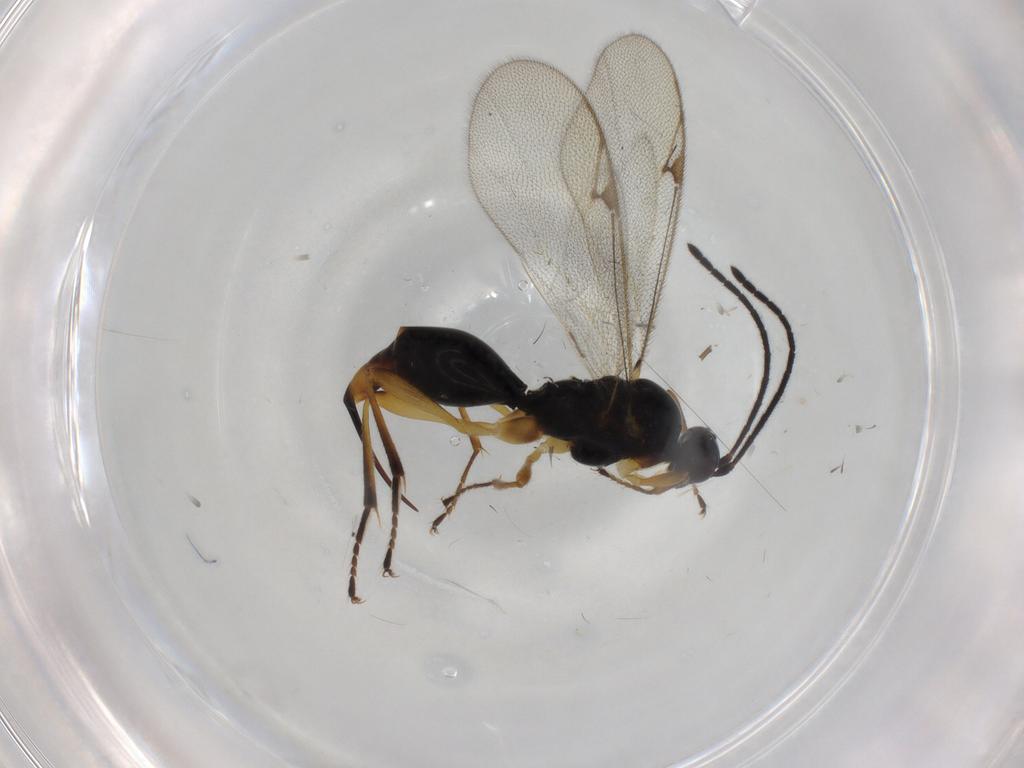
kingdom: Animalia
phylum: Arthropoda
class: Insecta
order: Hymenoptera
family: Proctotrupidae
